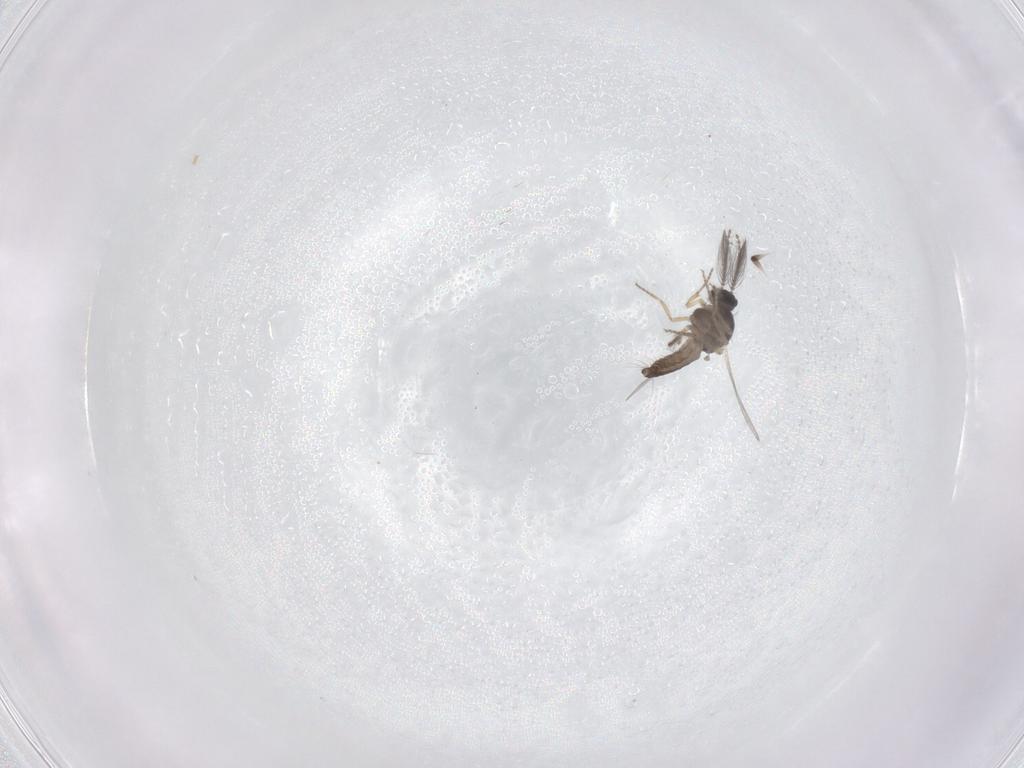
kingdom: Animalia
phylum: Arthropoda
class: Insecta
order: Diptera
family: Ceratopogonidae
